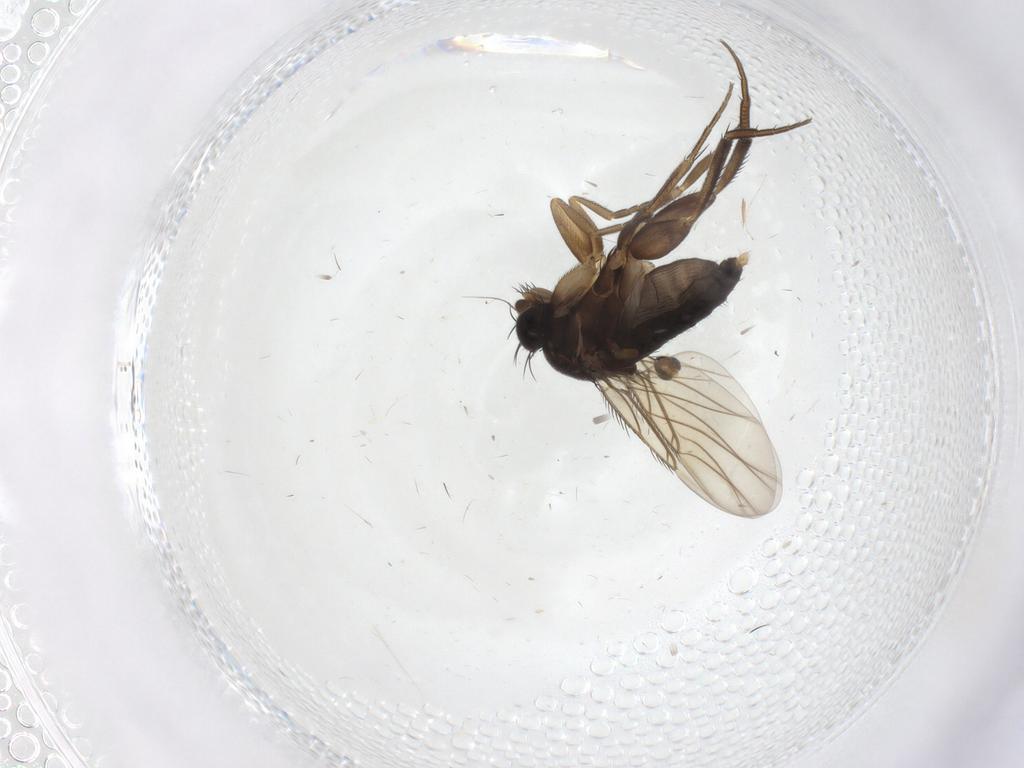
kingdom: Animalia
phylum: Arthropoda
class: Insecta
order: Diptera
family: Phoridae
